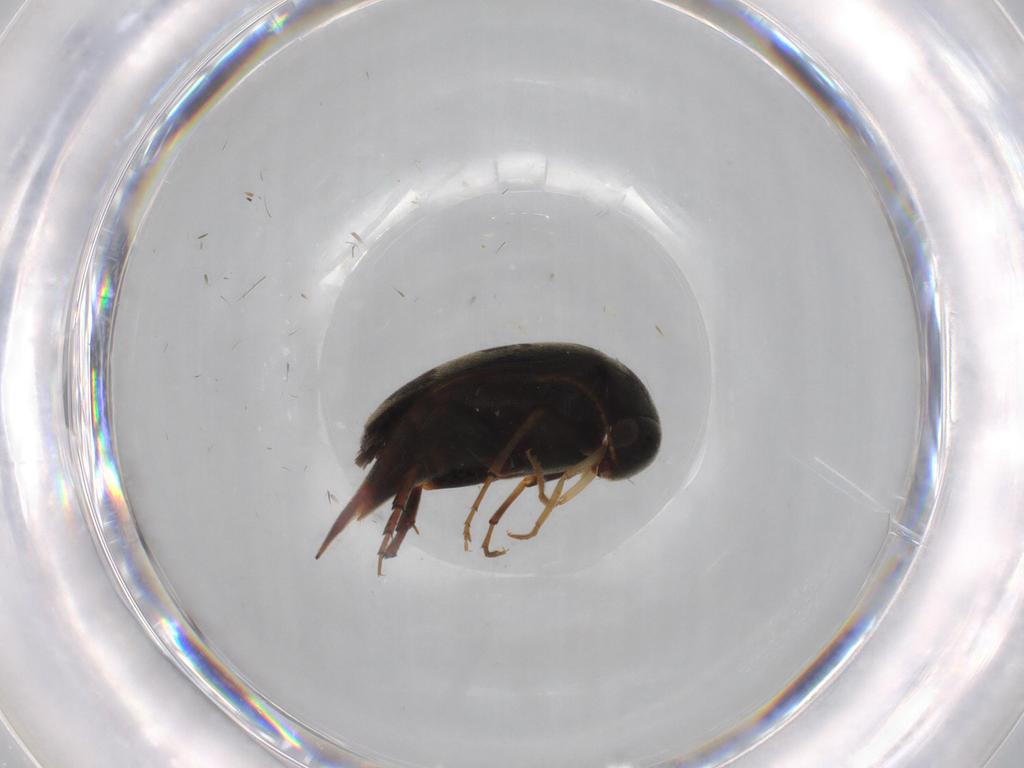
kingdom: Animalia
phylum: Arthropoda
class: Insecta
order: Coleoptera
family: Mordellidae
